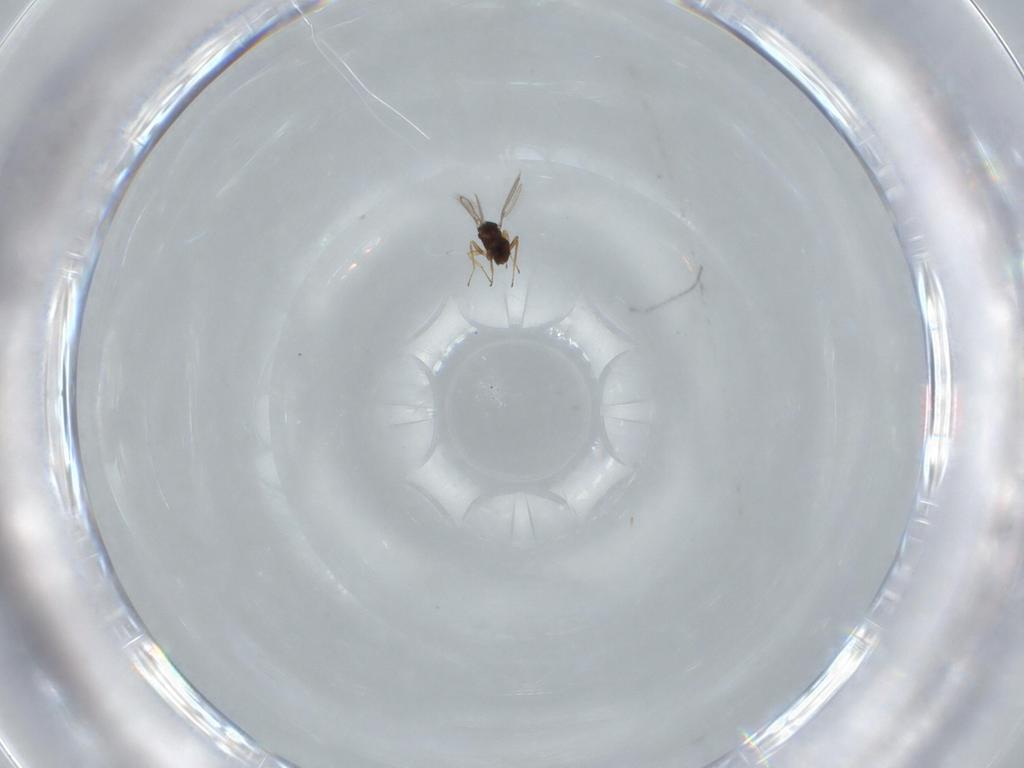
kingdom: Animalia
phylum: Arthropoda
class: Insecta
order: Hymenoptera
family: Mymaridae
